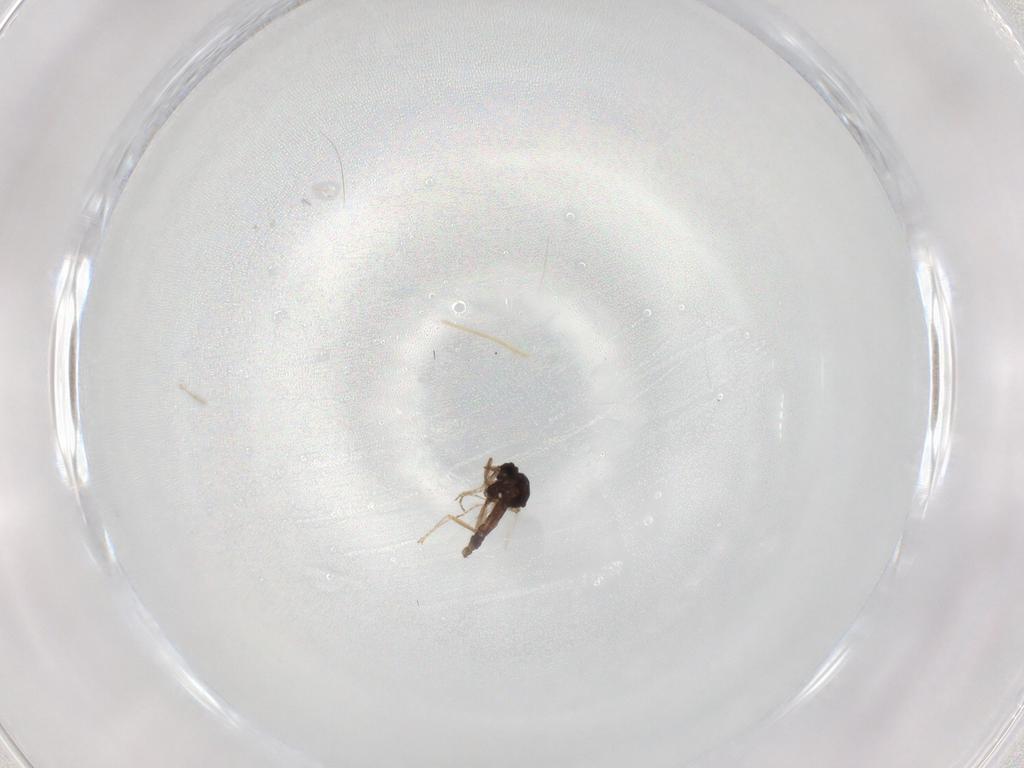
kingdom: Animalia
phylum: Arthropoda
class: Insecta
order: Diptera
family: Ceratopogonidae
